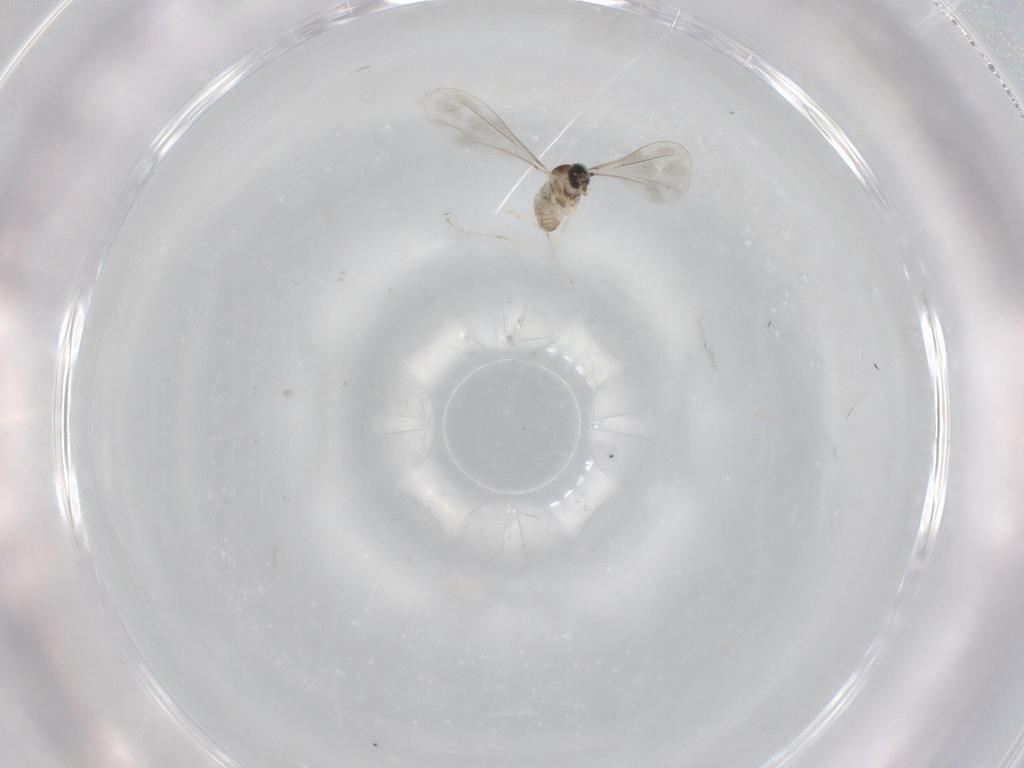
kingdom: Animalia
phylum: Arthropoda
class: Insecta
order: Diptera
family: Cecidomyiidae
